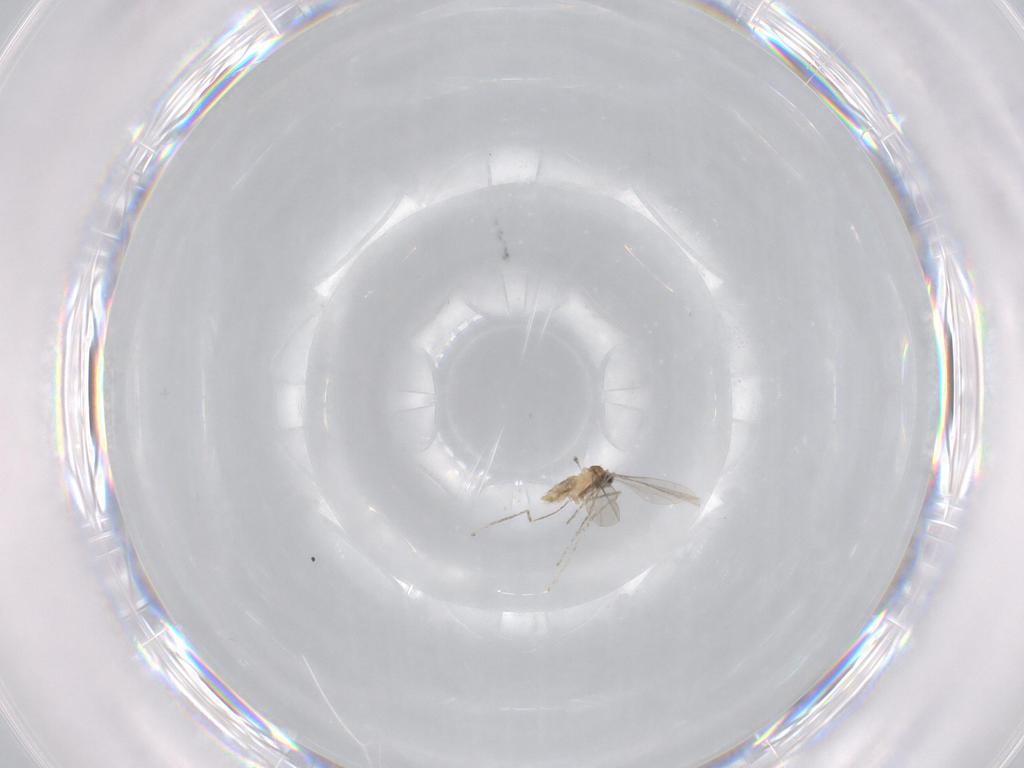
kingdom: Animalia
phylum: Arthropoda
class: Insecta
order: Diptera
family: Cecidomyiidae
